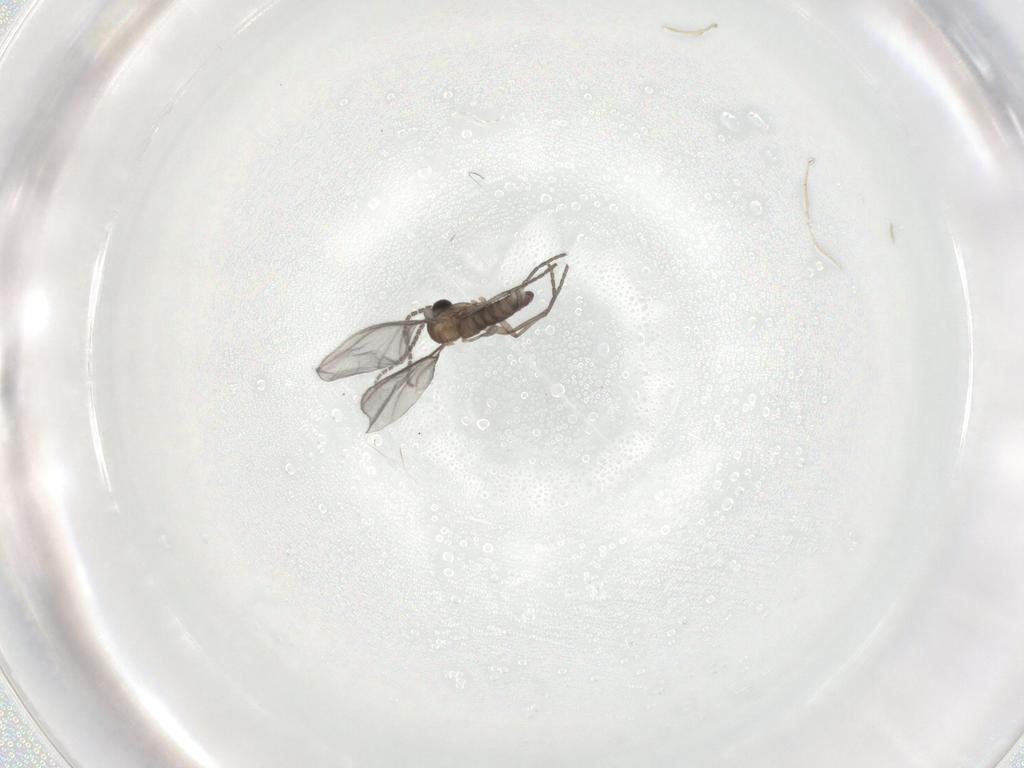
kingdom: Animalia
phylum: Arthropoda
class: Insecta
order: Diptera
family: Sciaridae
